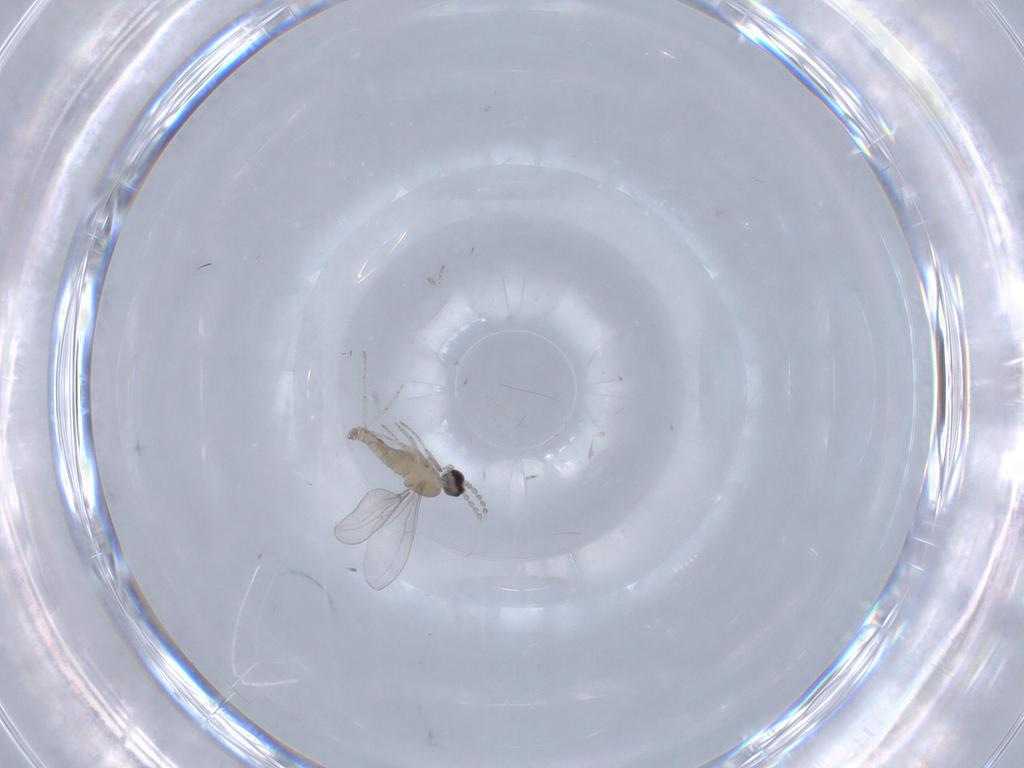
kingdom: Animalia
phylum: Arthropoda
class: Insecta
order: Diptera
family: Cecidomyiidae
